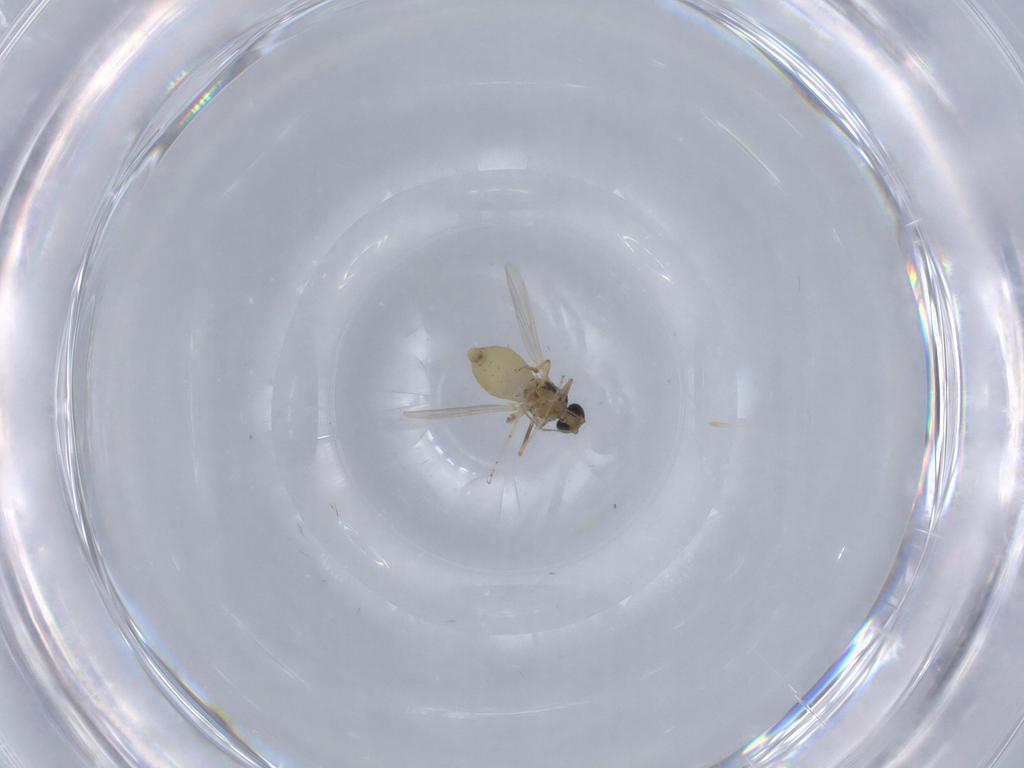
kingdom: Animalia
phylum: Arthropoda
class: Insecta
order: Diptera
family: Ceratopogonidae
